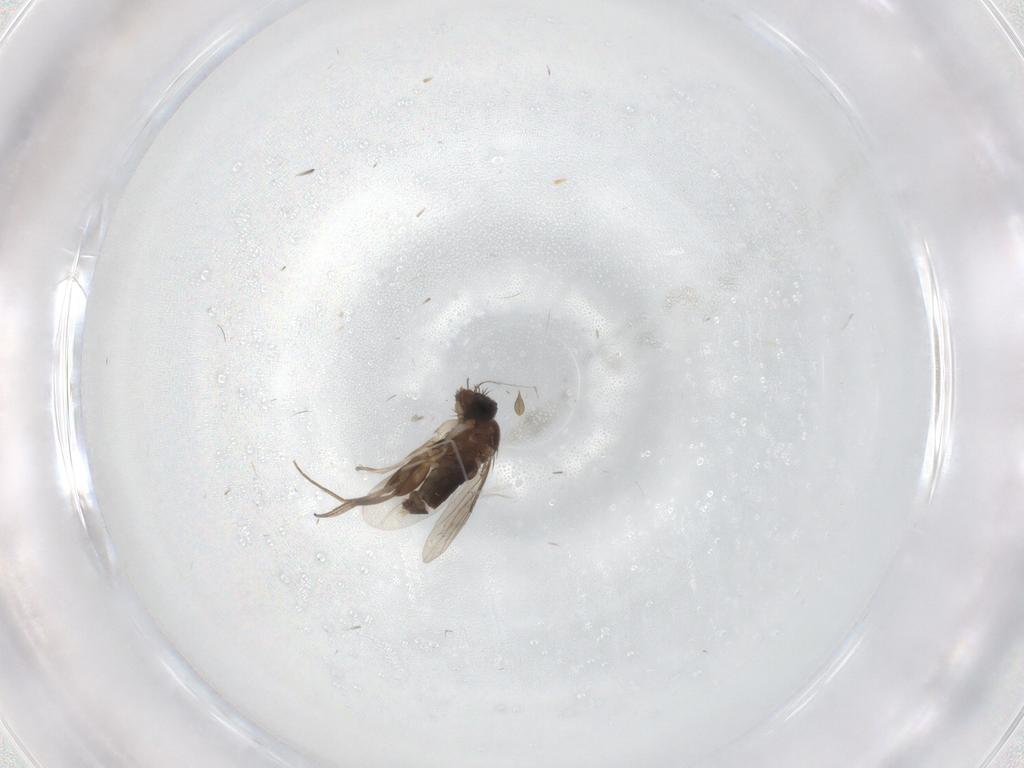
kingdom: Animalia
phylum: Arthropoda
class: Insecta
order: Diptera
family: Phoridae
